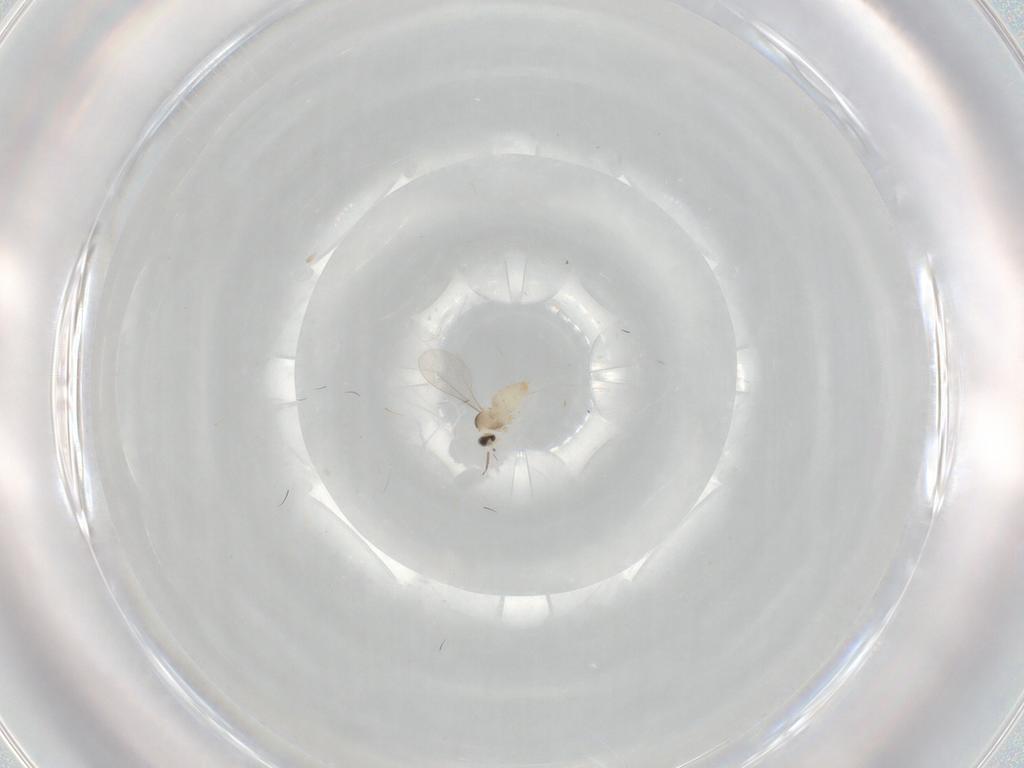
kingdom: Animalia
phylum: Arthropoda
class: Insecta
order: Diptera
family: Cecidomyiidae
